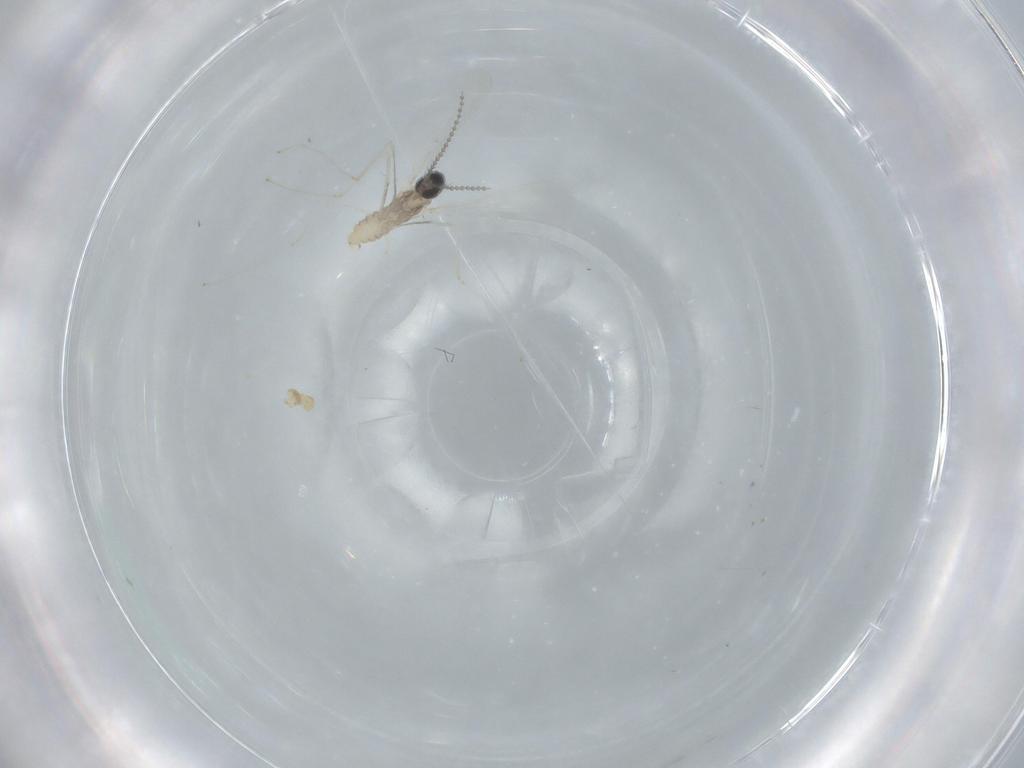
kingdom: Animalia
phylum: Arthropoda
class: Insecta
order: Diptera
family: Cecidomyiidae
